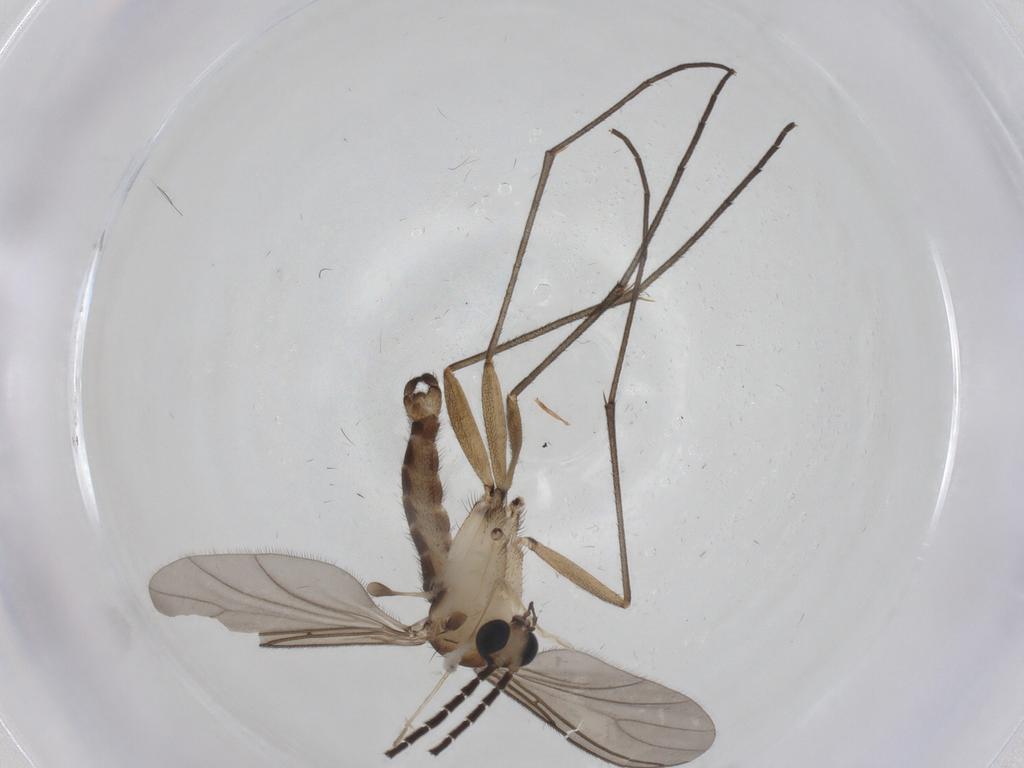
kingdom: Animalia
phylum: Arthropoda
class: Insecta
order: Diptera
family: Sciaridae
